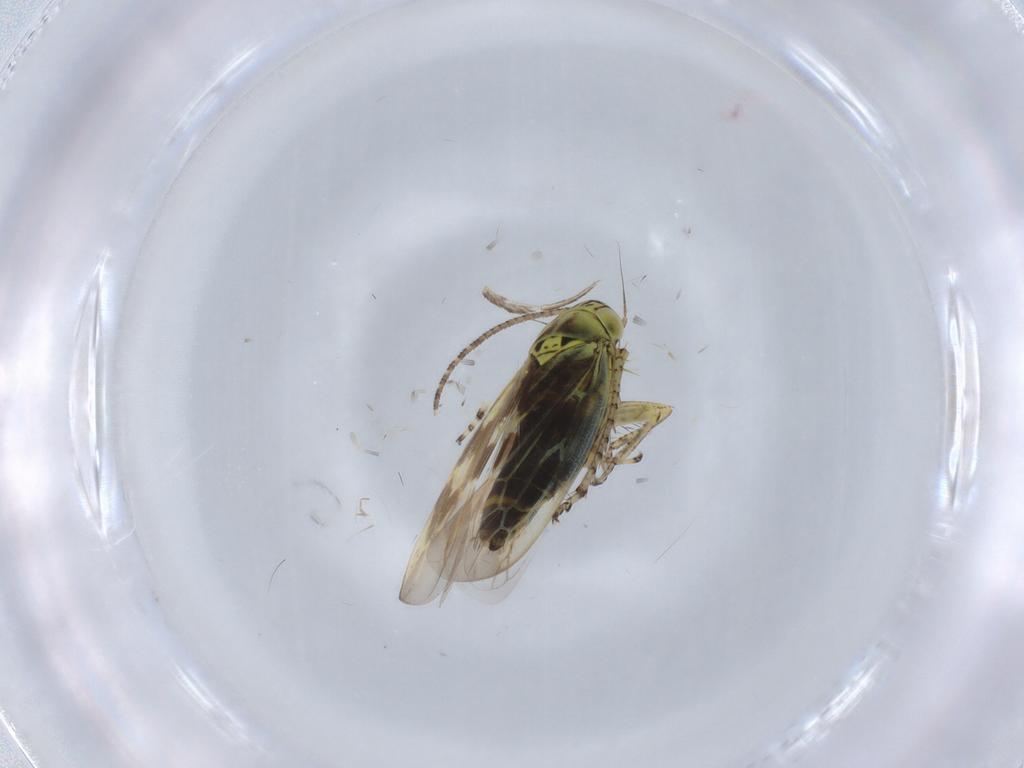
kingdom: Animalia
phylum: Arthropoda
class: Insecta
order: Hemiptera
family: Cicadellidae
